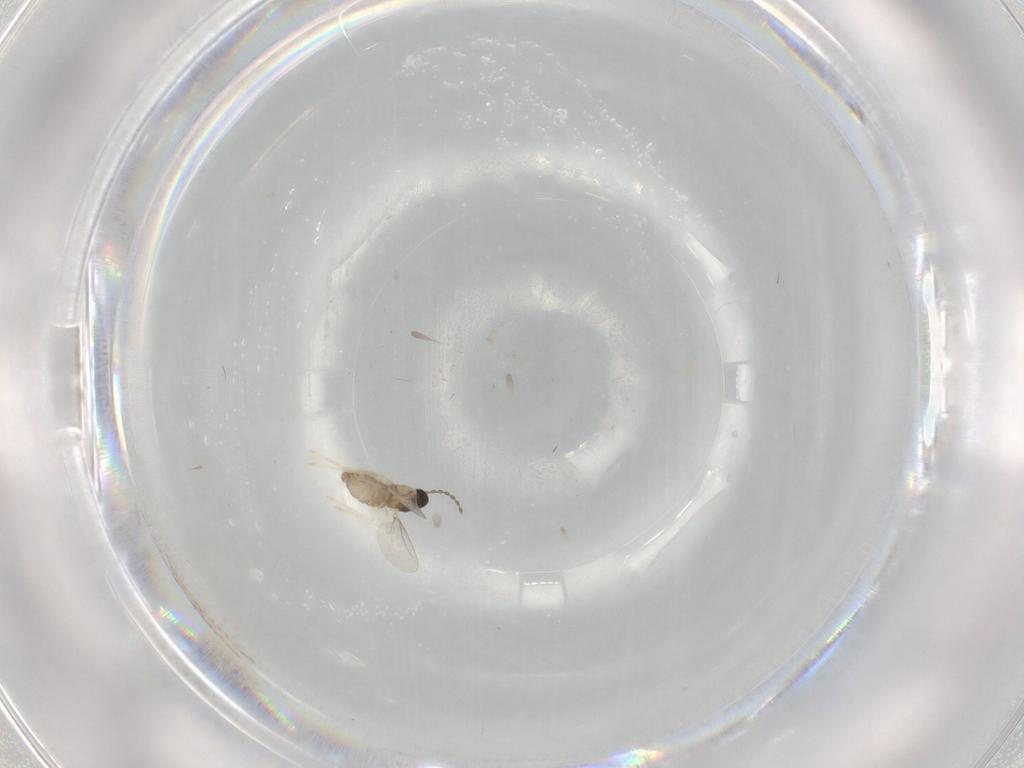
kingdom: Animalia
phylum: Arthropoda
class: Insecta
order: Diptera
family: Cecidomyiidae
